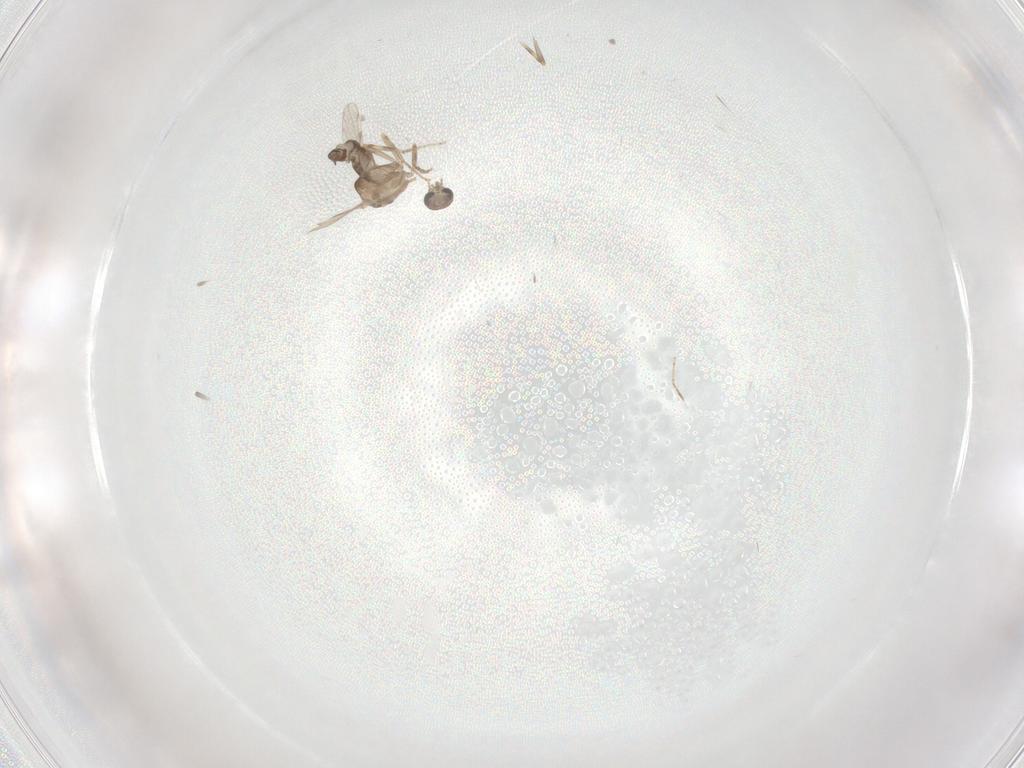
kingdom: Animalia
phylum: Arthropoda
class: Insecta
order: Diptera
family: Ceratopogonidae
